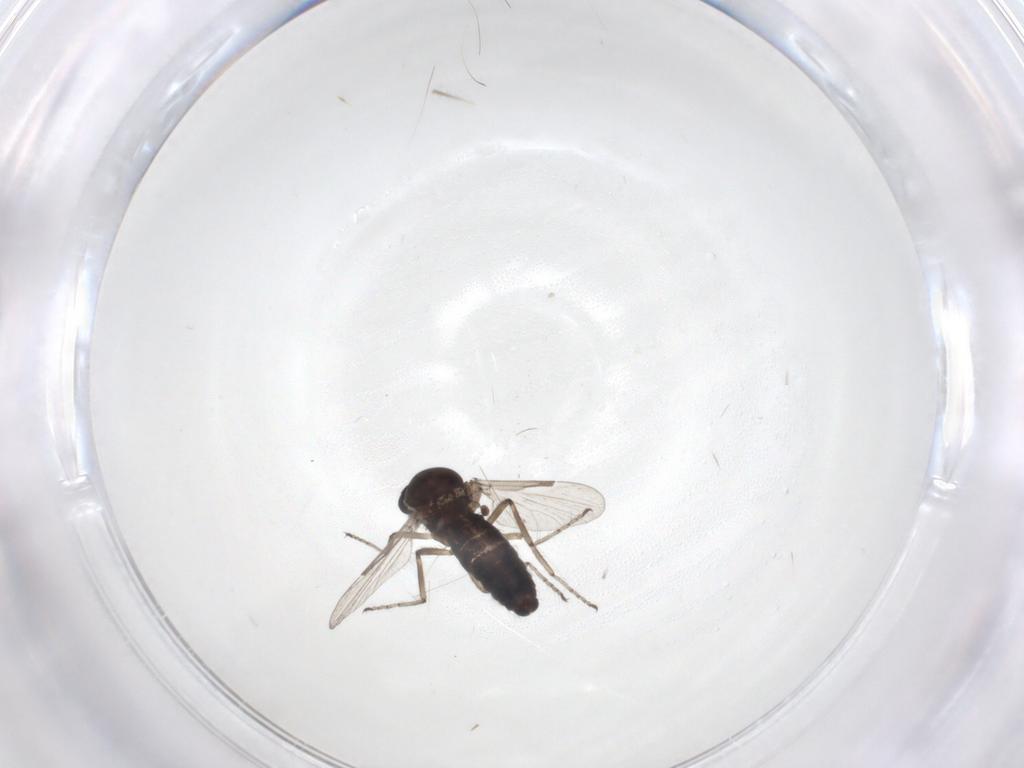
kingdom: Animalia
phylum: Arthropoda
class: Insecta
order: Diptera
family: Ceratopogonidae
